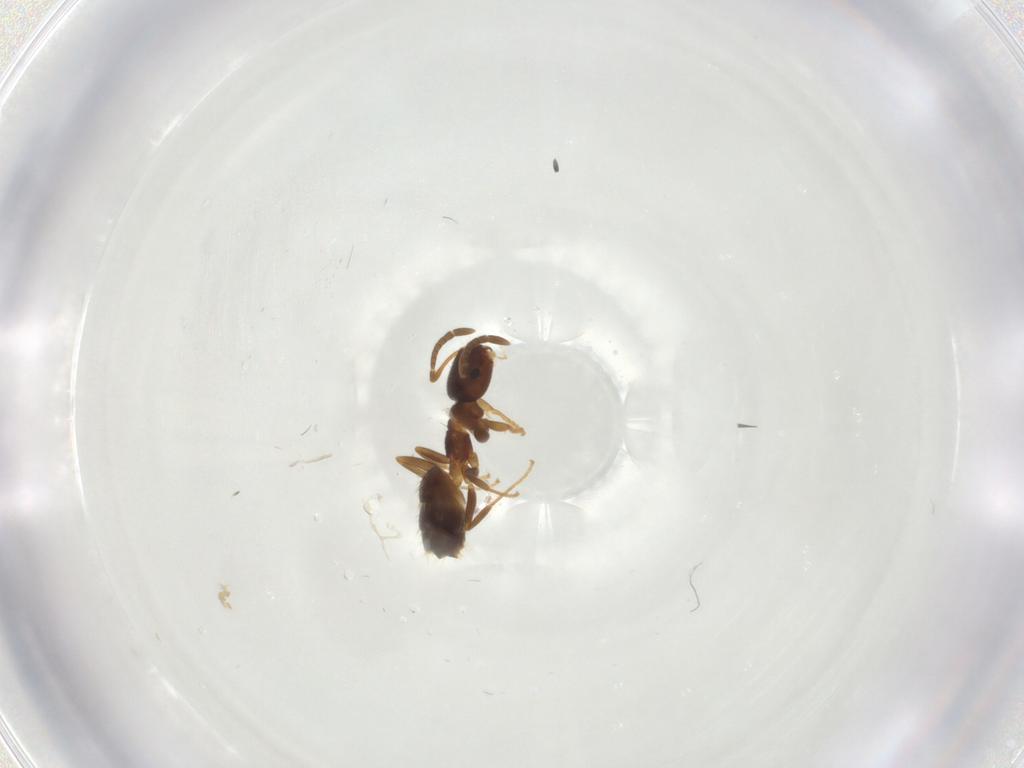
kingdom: Animalia
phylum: Arthropoda
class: Insecta
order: Hymenoptera
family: Formicidae
